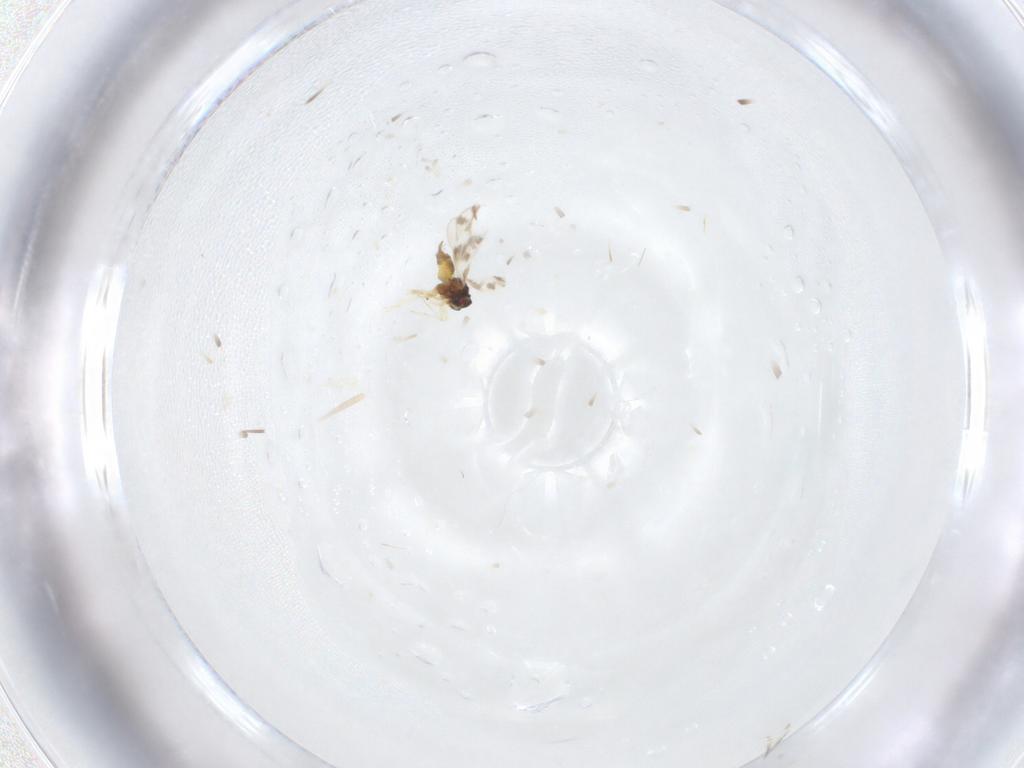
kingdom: Animalia
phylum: Arthropoda
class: Insecta
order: Hemiptera
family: Aleyrodidae
